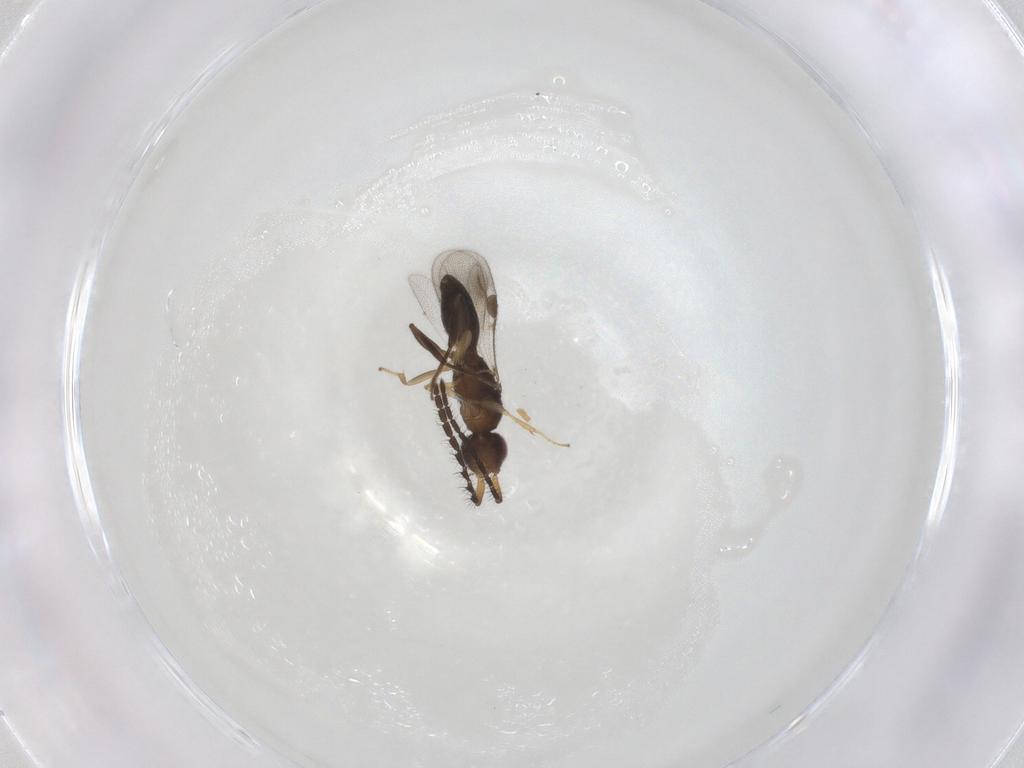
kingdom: Animalia
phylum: Arthropoda
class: Insecta
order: Hymenoptera
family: Megaspilidae
